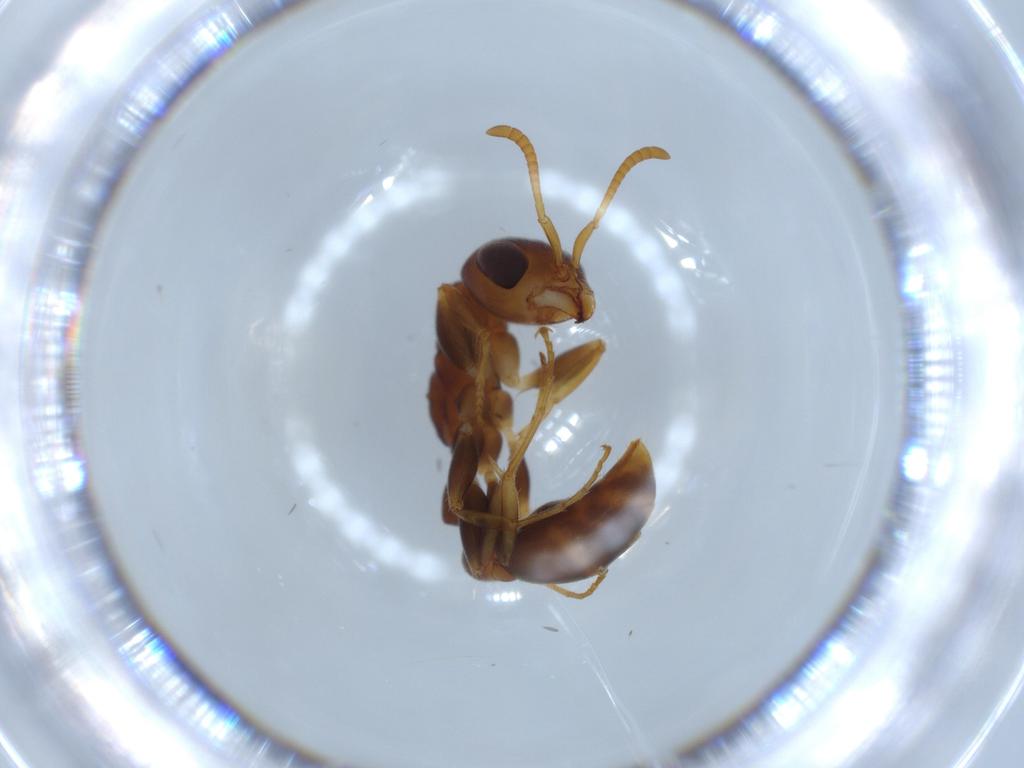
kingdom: Animalia
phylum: Arthropoda
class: Insecta
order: Hymenoptera
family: Formicidae
